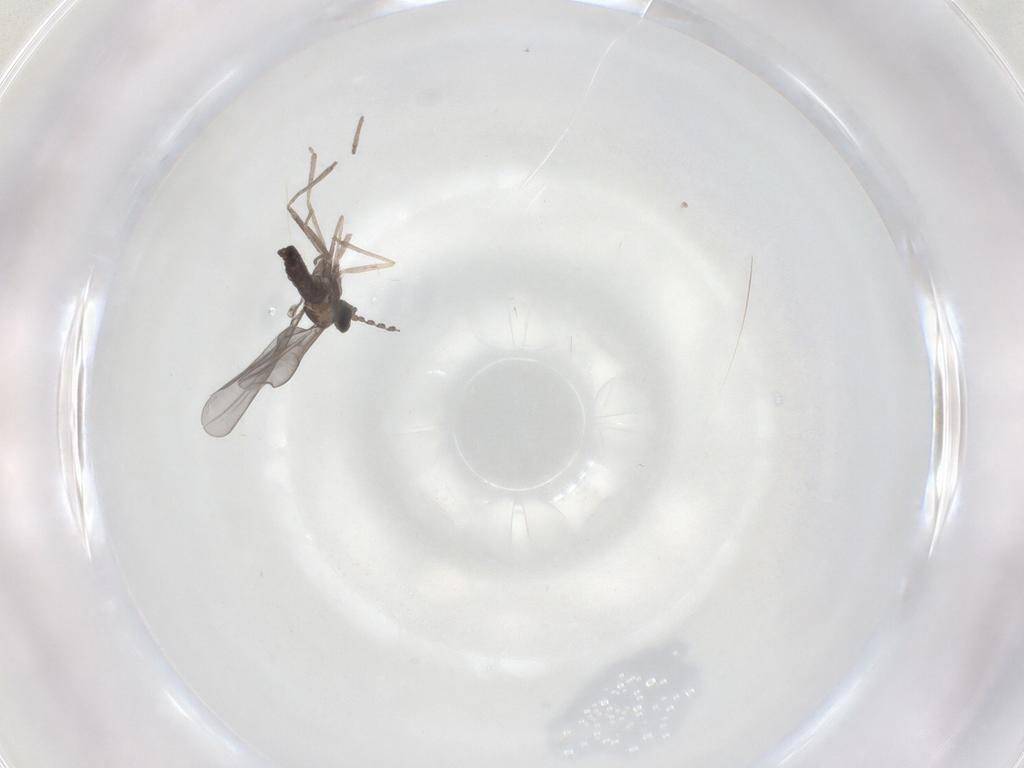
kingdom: Animalia
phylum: Arthropoda
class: Insecta
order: Diptera
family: Cecidomyiidae
